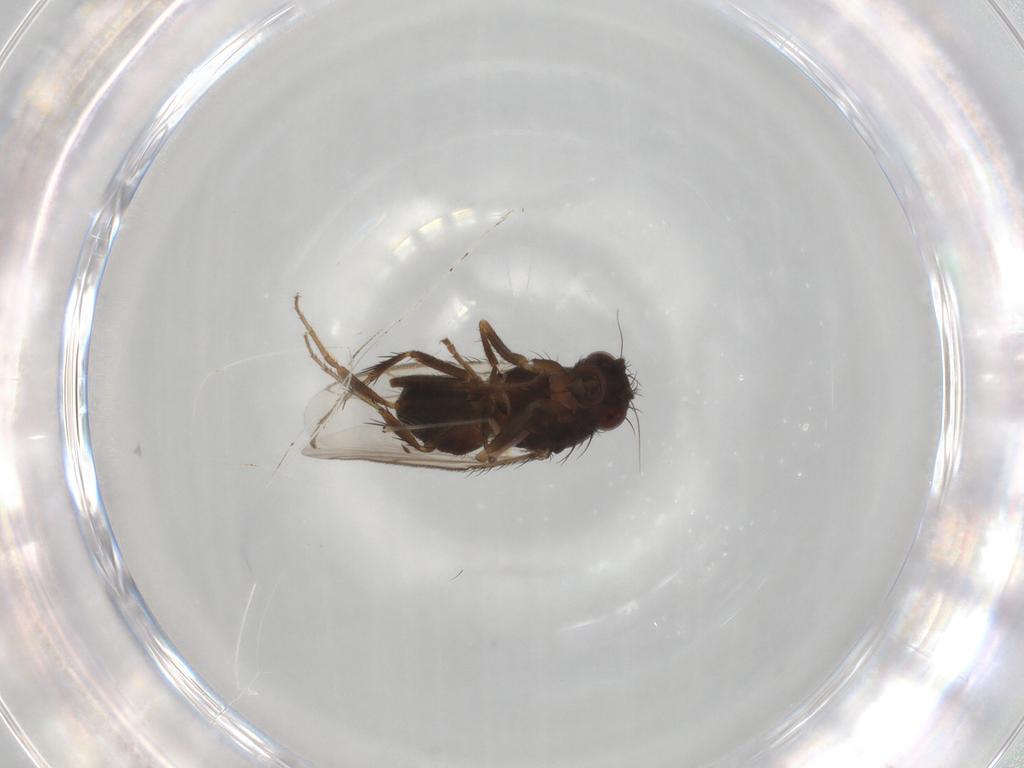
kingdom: Animalia
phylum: Arthropoda
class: Insecta
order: Diptera
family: Sphaeroceridae
